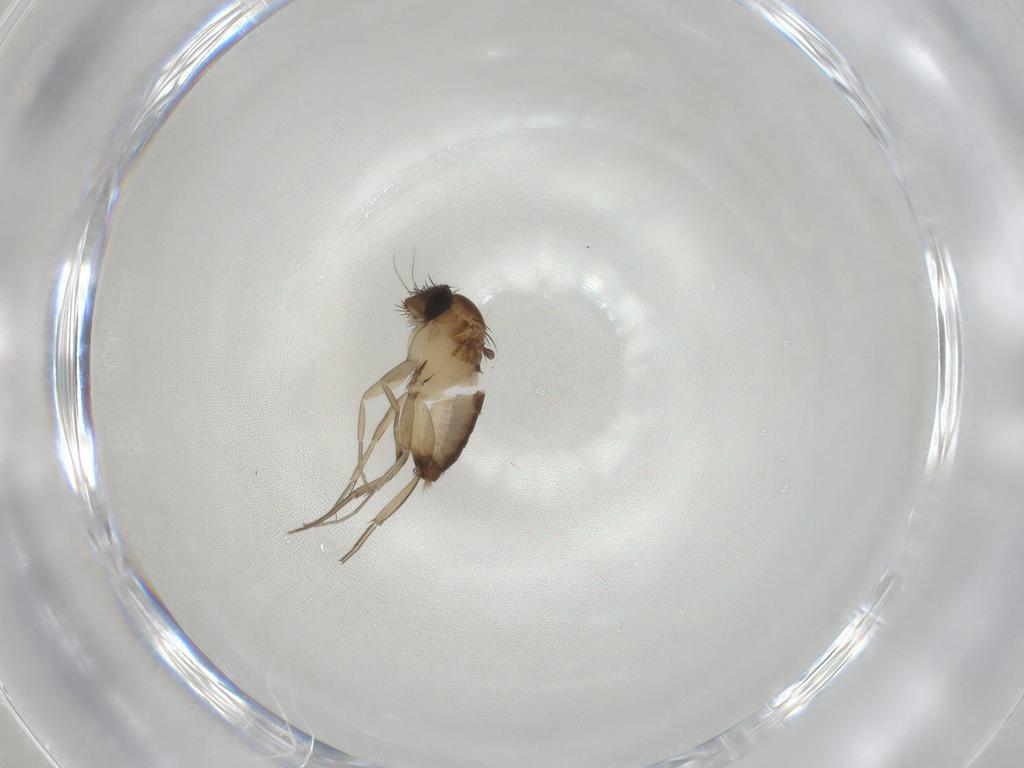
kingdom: Animalia
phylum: Arthropoda
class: Insecta
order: Diptera
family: Phoridae
